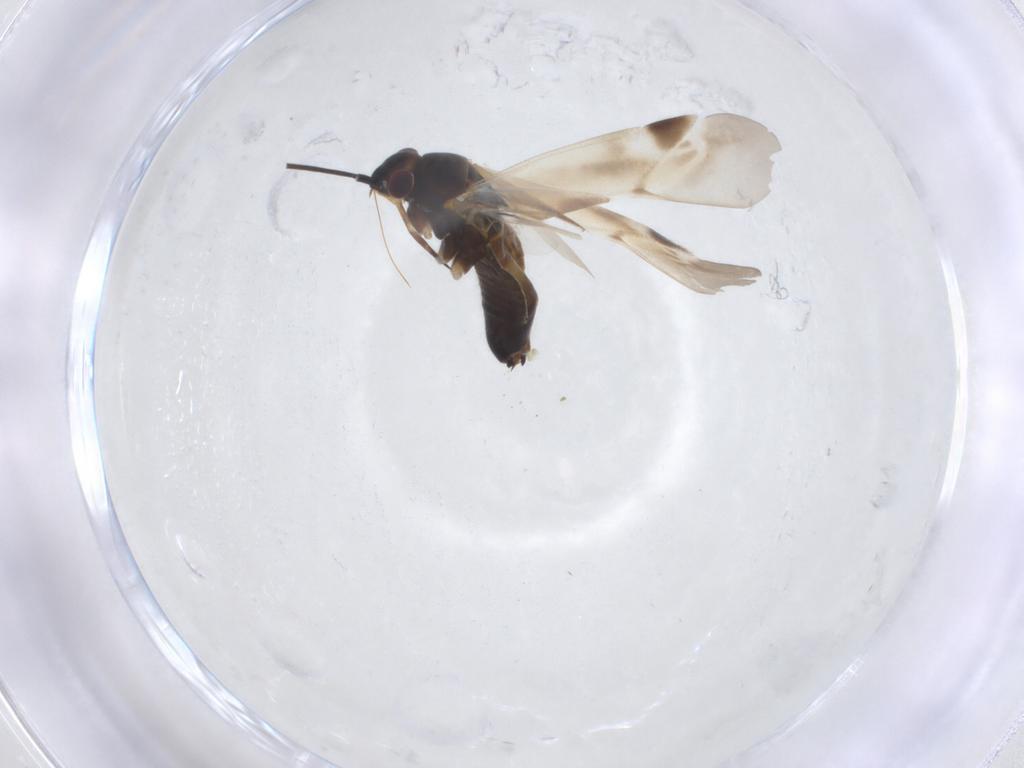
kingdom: Animalia
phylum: Arthropoda
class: Insecta
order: Hemiptera
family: Miridae
